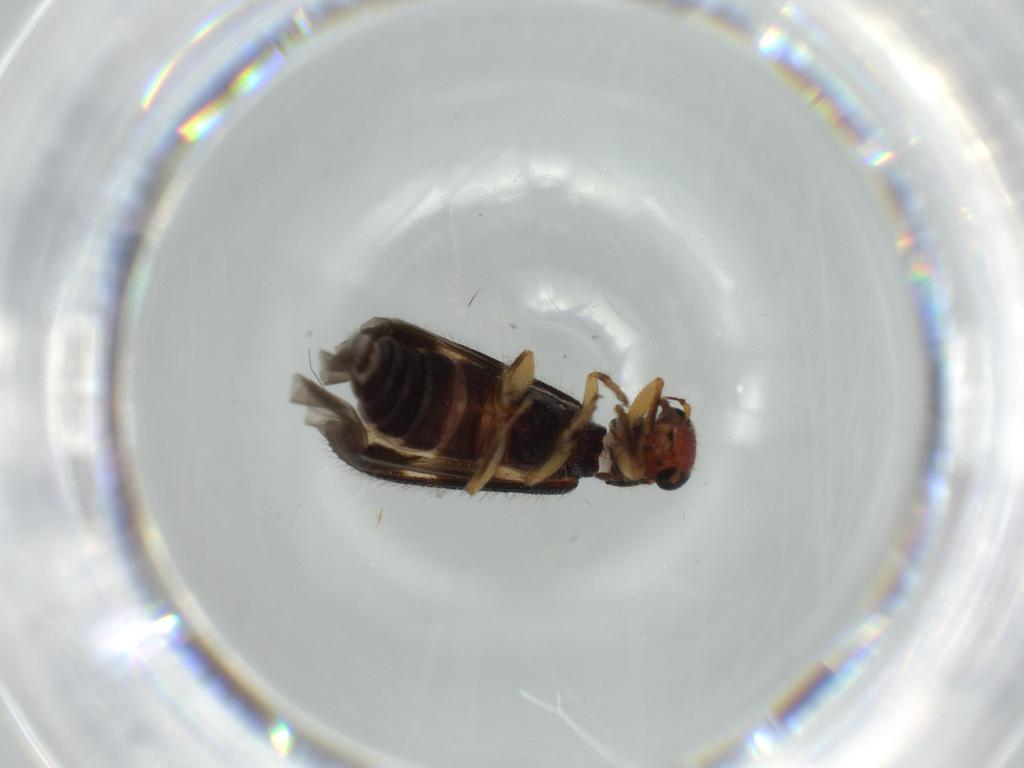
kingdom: Animalia
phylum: Arthropoda
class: Insecta
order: Coleoptera
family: Cleridae
